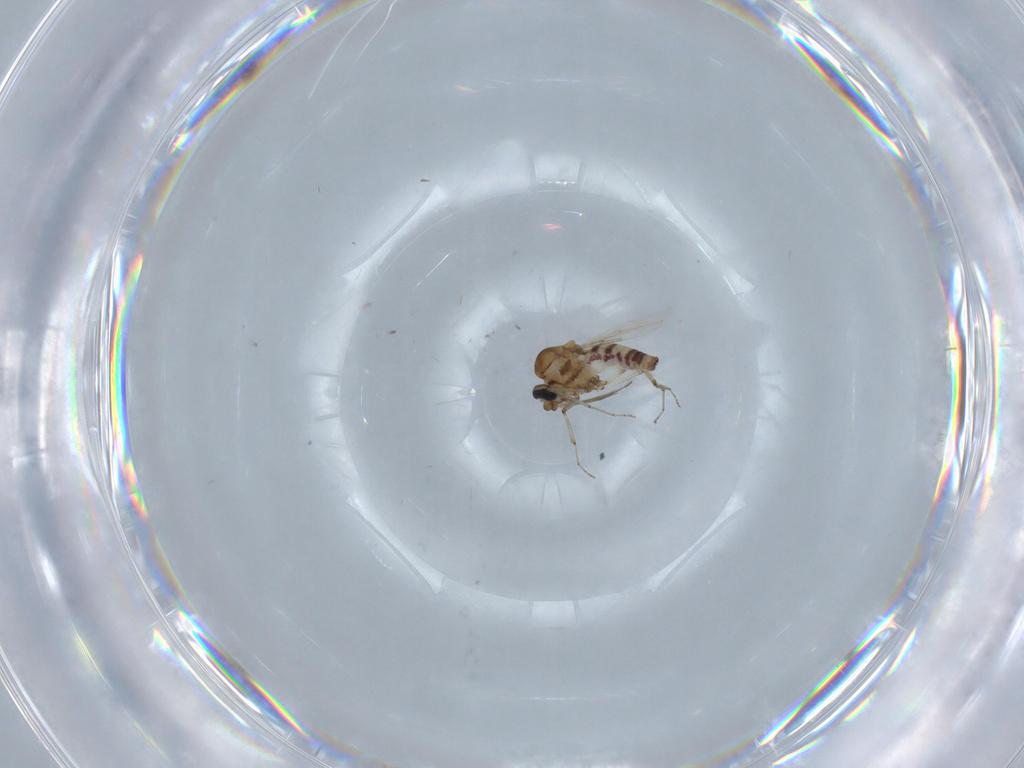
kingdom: Animalia
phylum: Arthropoda
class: Insecta
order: Diptera
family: Ceratopogonidae
